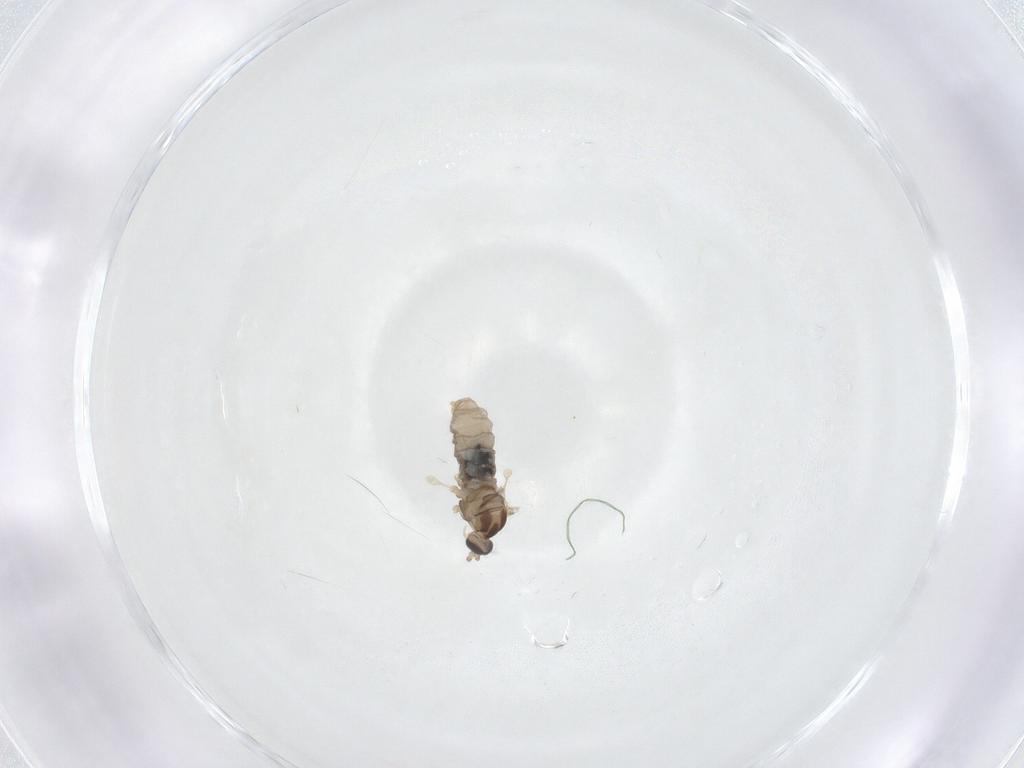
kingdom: Animalia
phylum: Arthropoda
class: Insecta
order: Diptera
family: Cecidomyiidae
